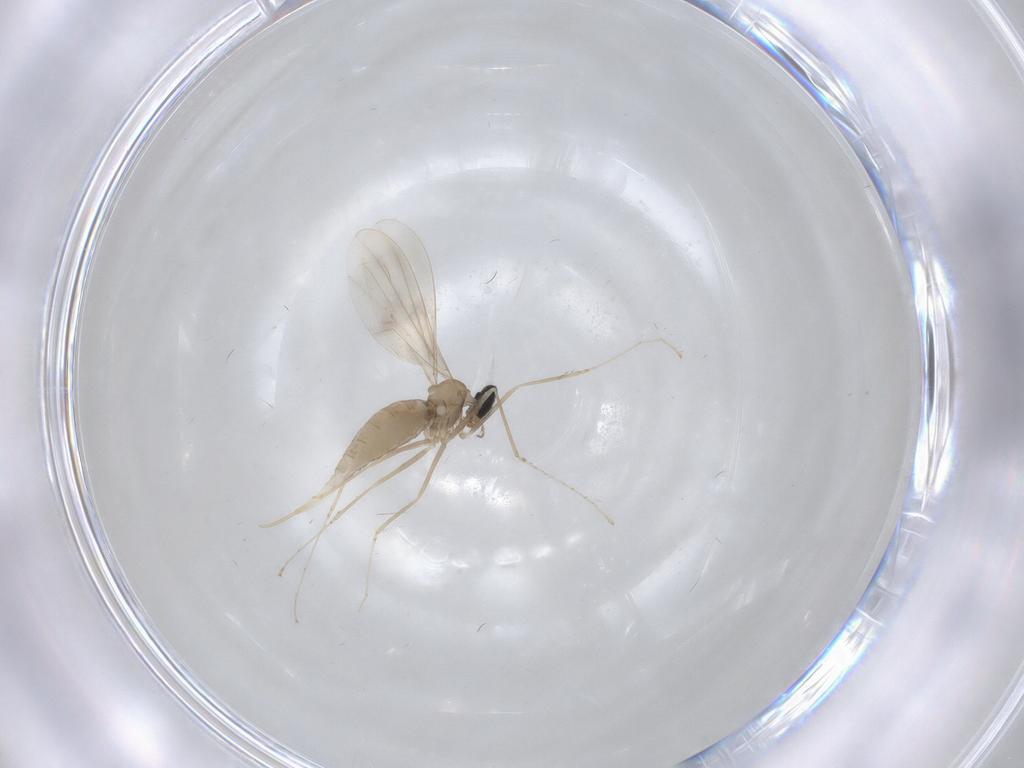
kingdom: Animalia
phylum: Arthropoda
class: Insecta
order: Diptera
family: Cecidomyiidae
